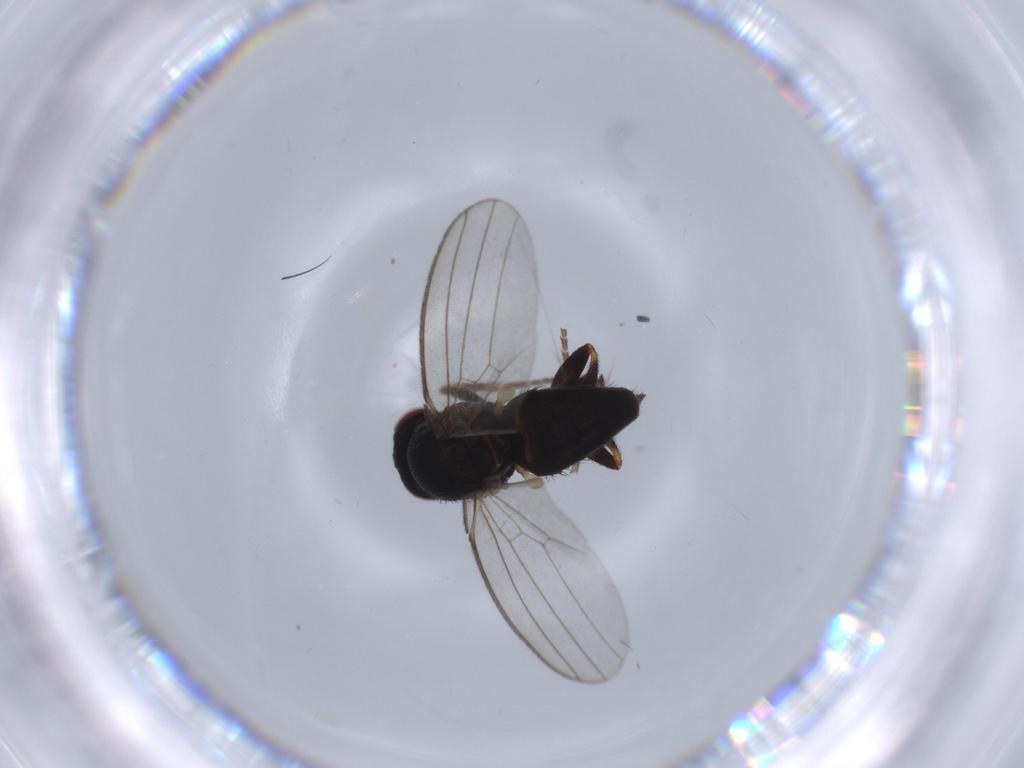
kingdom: Animalia
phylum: Arthropoda
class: Insecta
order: Diptera
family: Milichiidae
